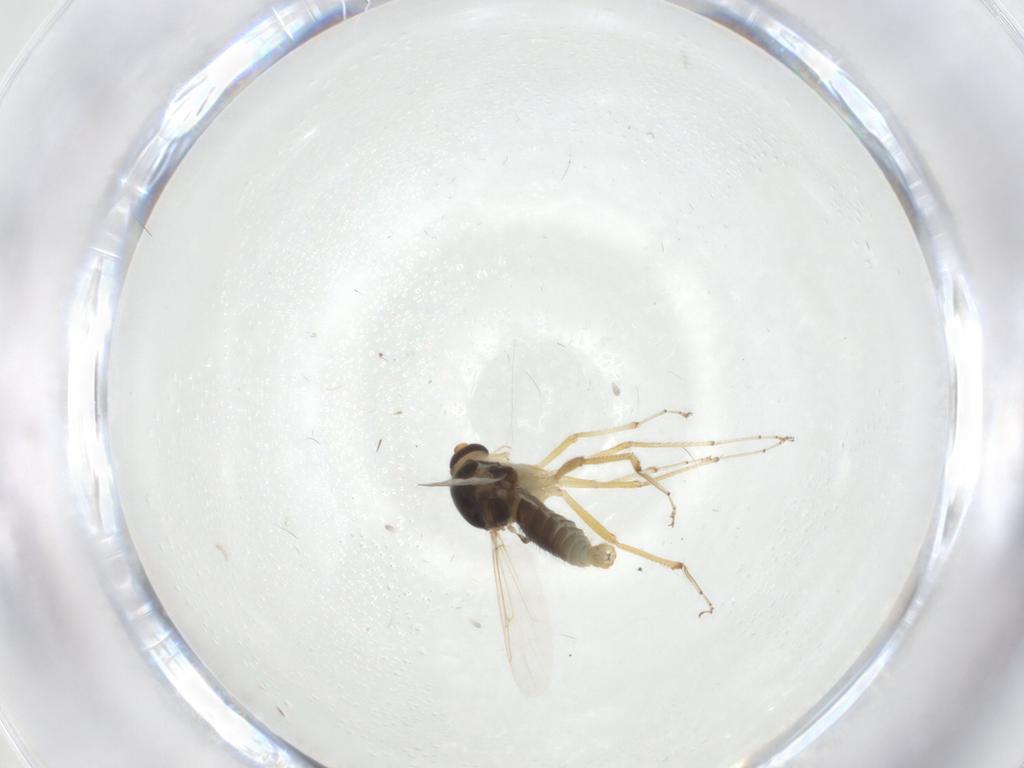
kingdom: Animalia
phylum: Arthropoda
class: Insecta
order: Diptera
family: Ceratopogonidae
